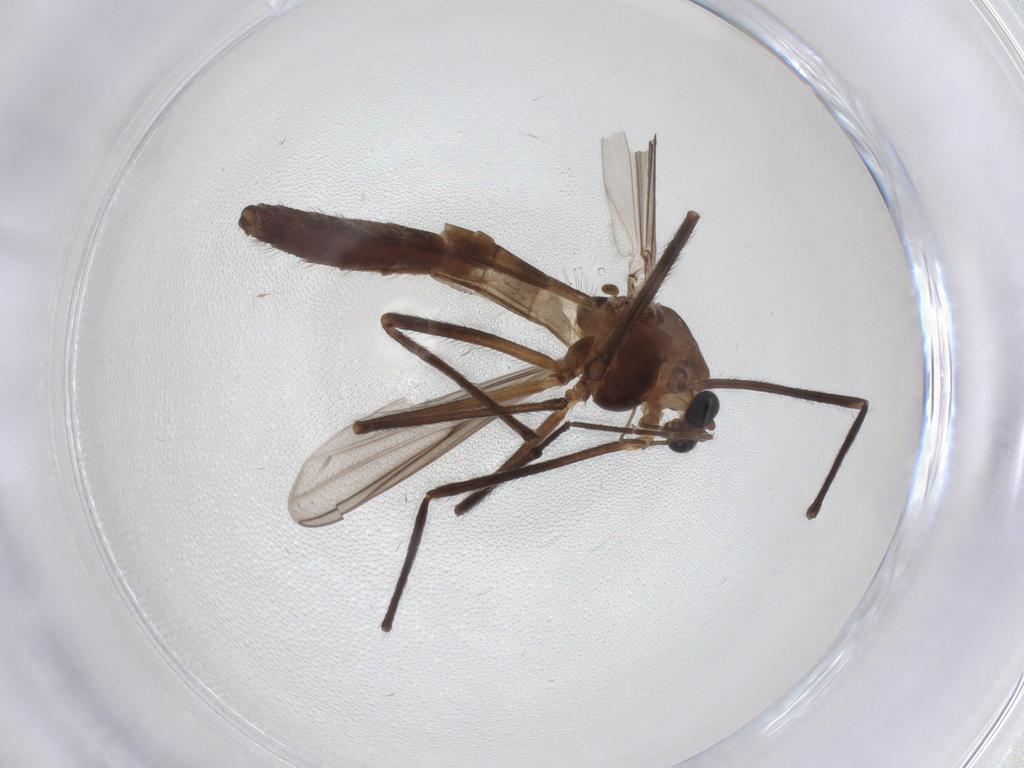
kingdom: Animalia
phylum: Arthropoda
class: Insecta
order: Diptera
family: Chironomidae
